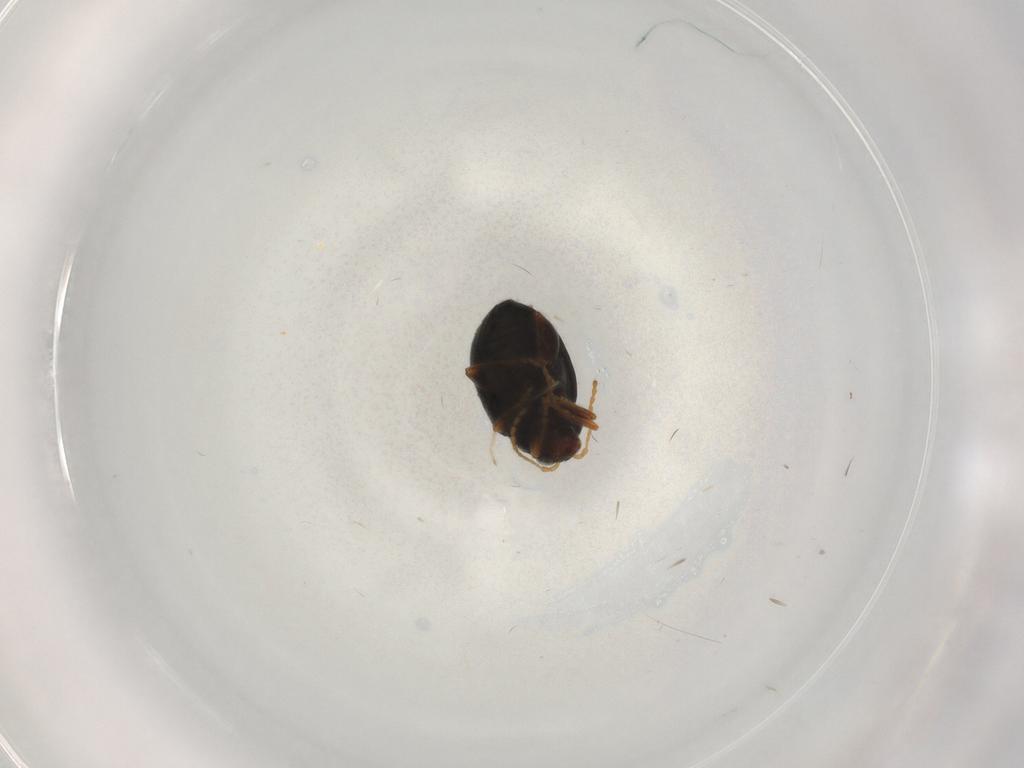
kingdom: Animalia
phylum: Arthropoda
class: Insecta
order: Coleoptera
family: Chrysomelidae
